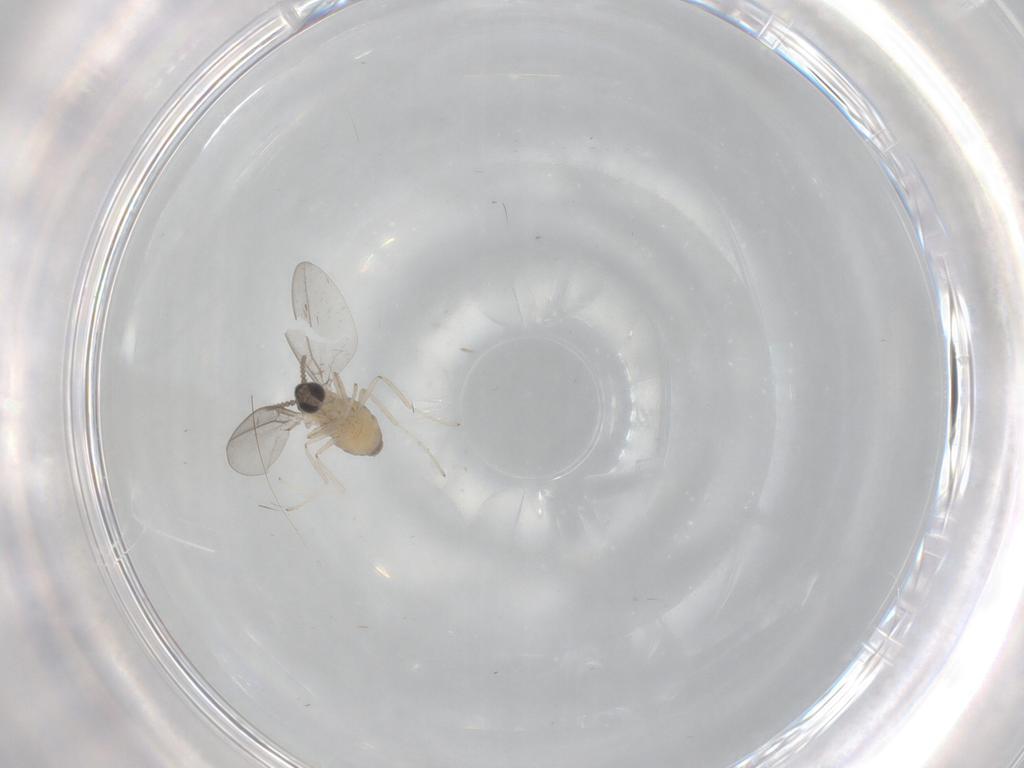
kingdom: Animalia
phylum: Arthropoda
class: Insecta
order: Diptera
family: Cecidomyiidae
